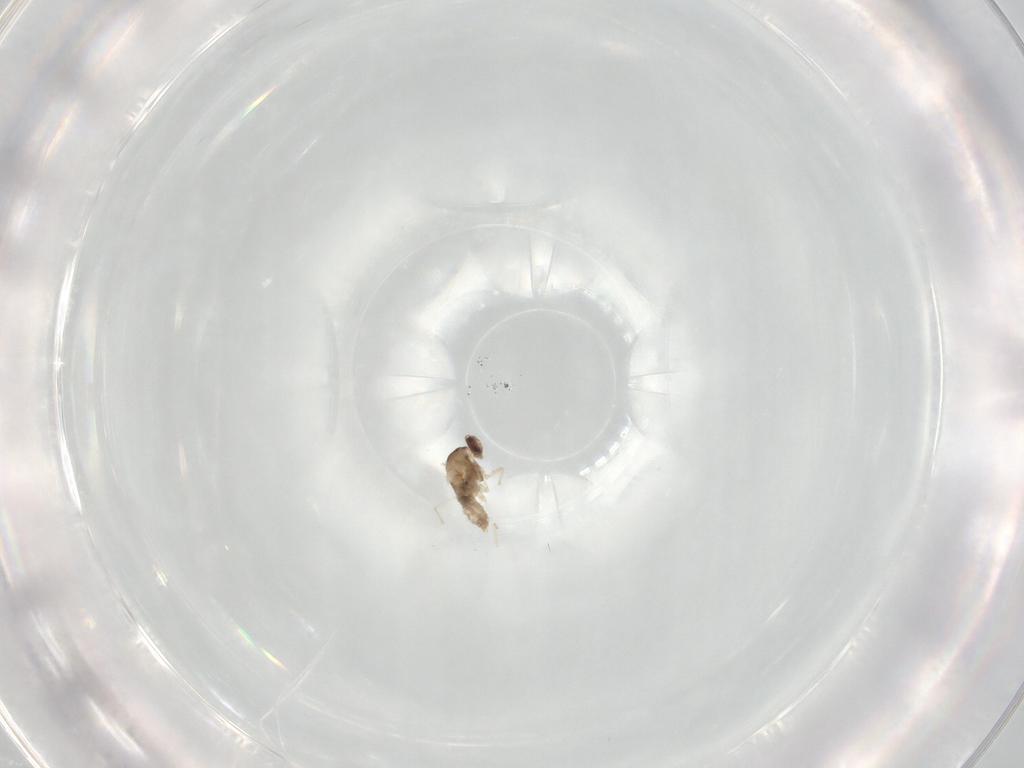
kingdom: Animalia
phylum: Arthropoda
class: Insecta
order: Diptera
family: Cecidomyiidae
